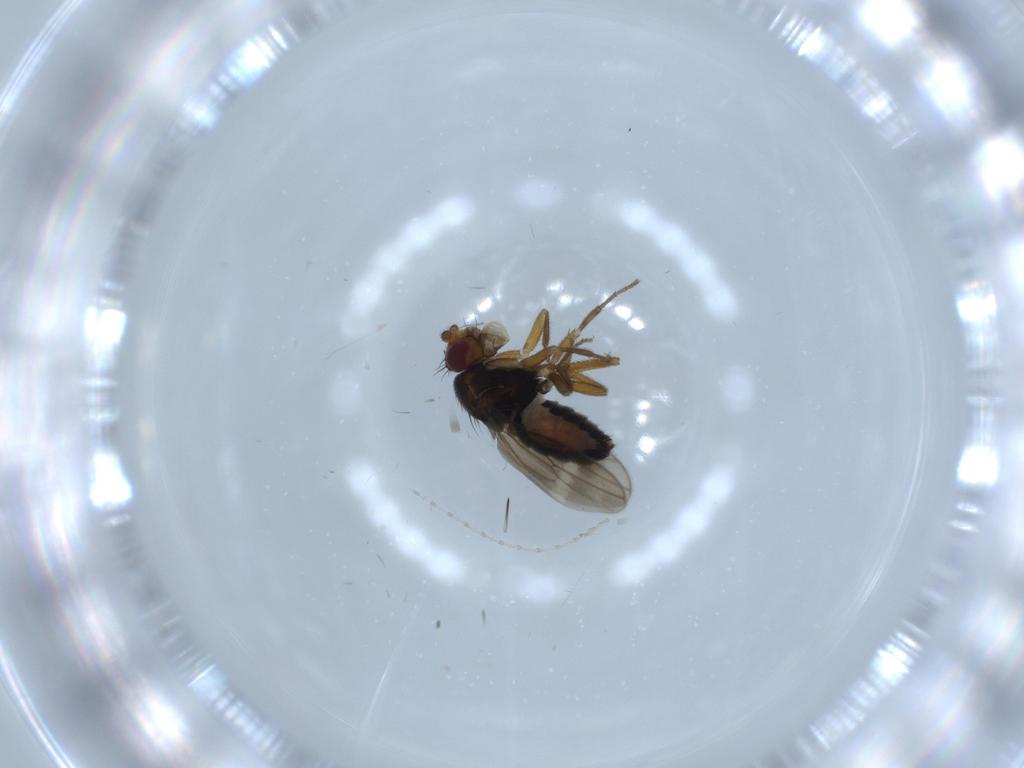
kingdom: Animalia
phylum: Arthropoda
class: Insecta
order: Diptera
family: Sphaeroceridae
